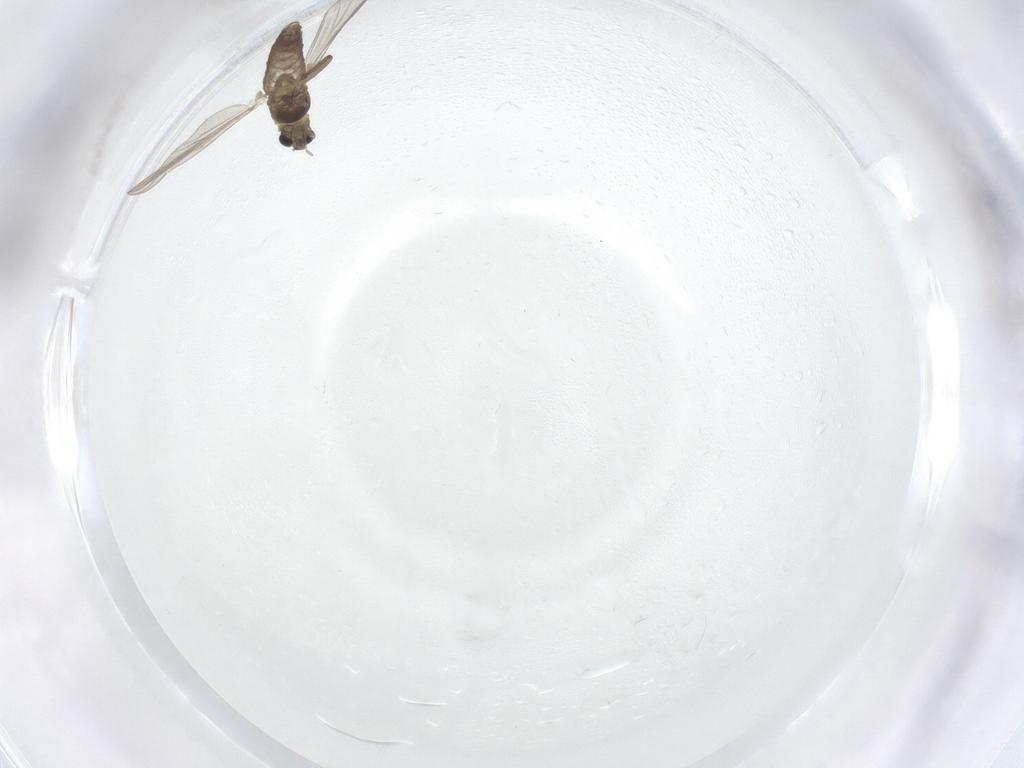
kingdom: Animalia
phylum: Arthropoda
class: Insecta
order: Diptera
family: Chironomidae
